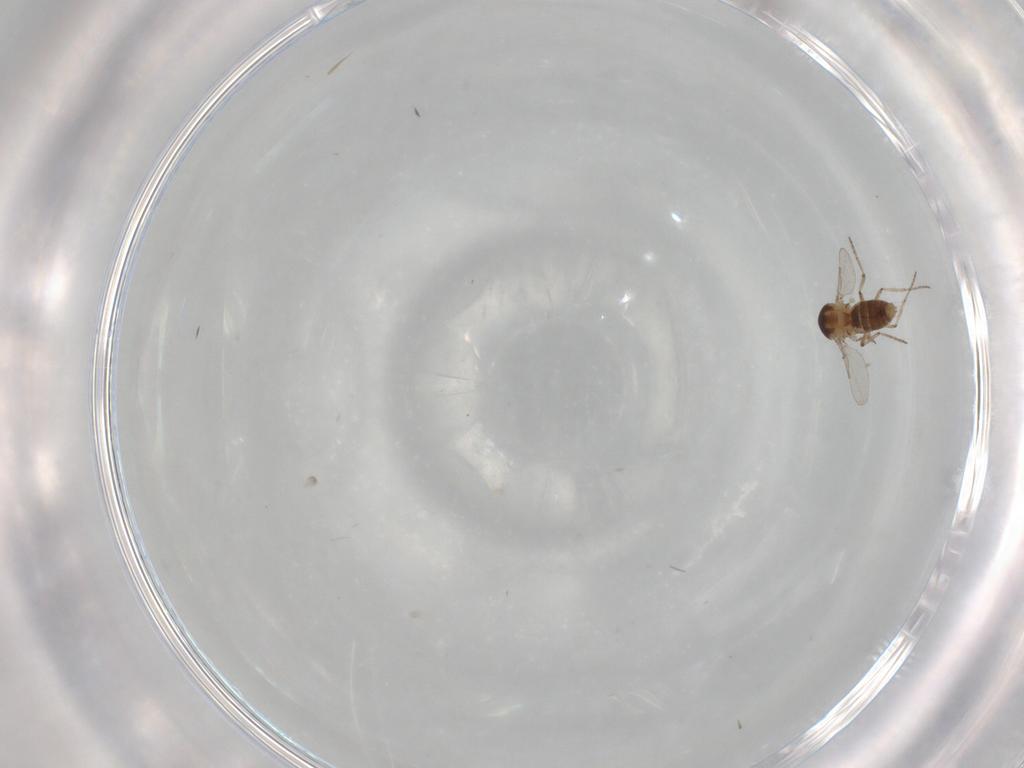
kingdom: Animalia
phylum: Arthropoda
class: Insecta
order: Diptera
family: Ceratopogonidae
